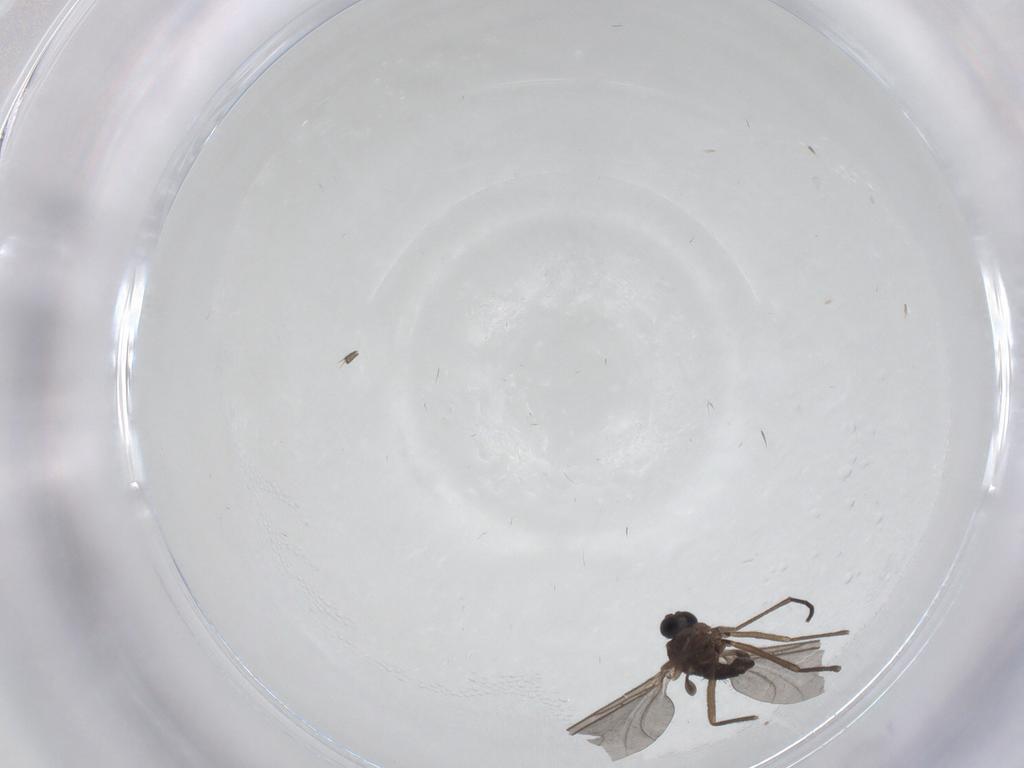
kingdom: Animalia
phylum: Arthropoda
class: Insecta
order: Diptera
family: Sciaridae
